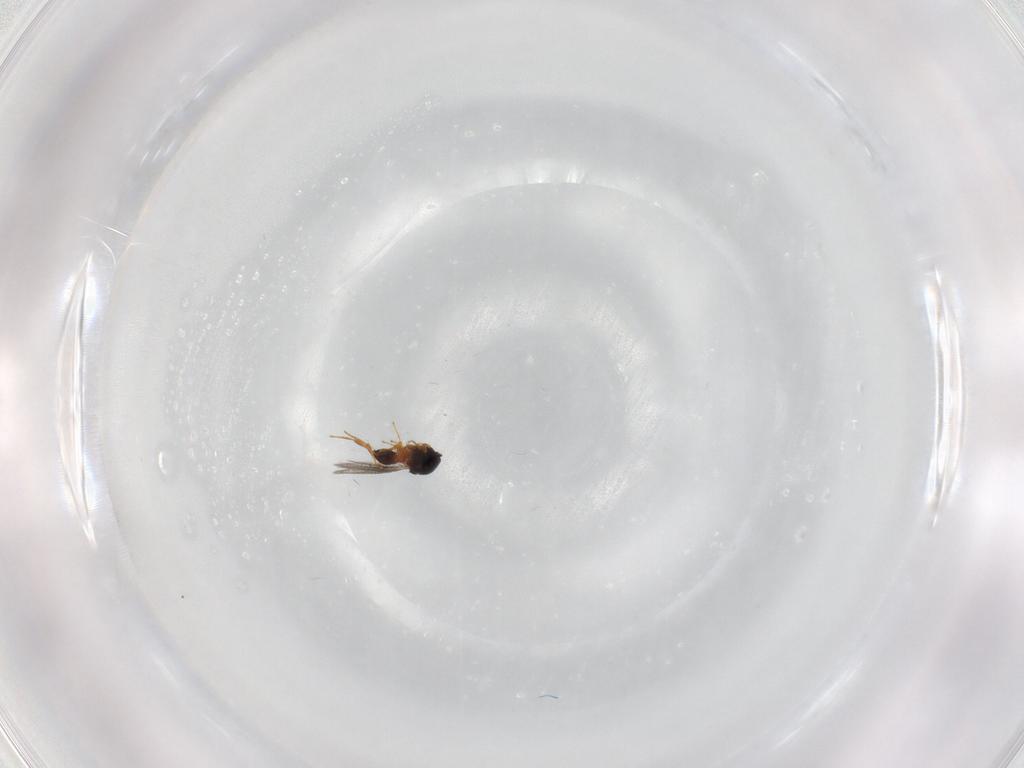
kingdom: Animalia
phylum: Arthropoda
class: Insecta
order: Hymenoptera
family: Platygastridae
